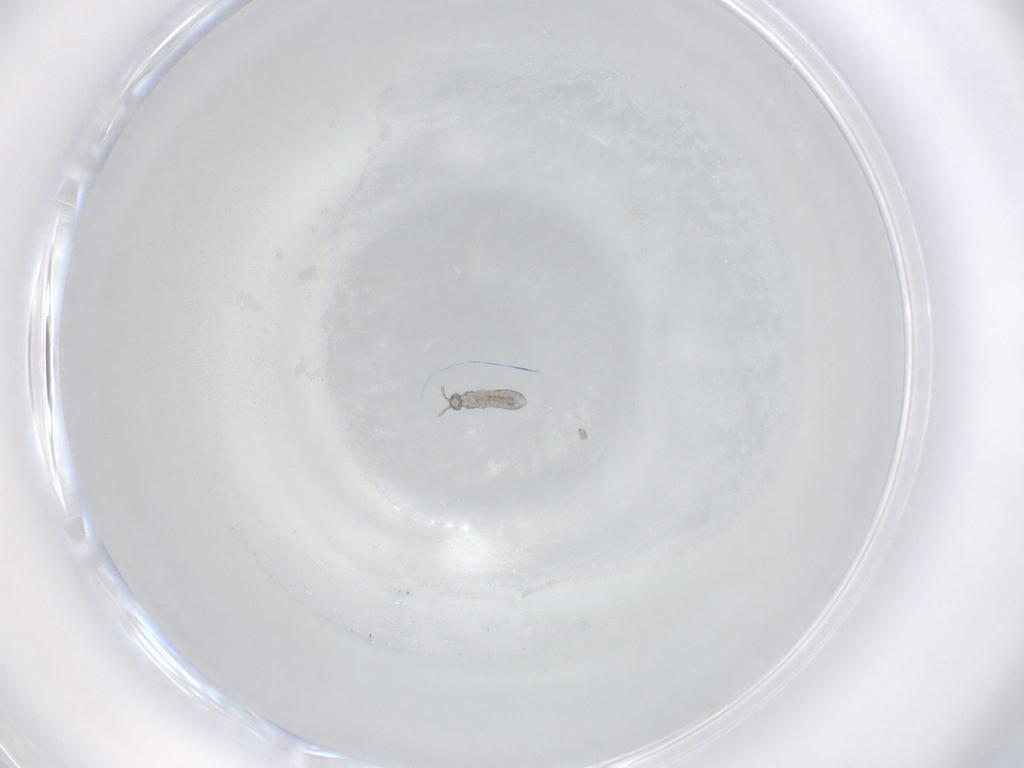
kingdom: Animalia
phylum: Arthropoda
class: Collembola
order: Entomobryomorpha
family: Isotomidae
